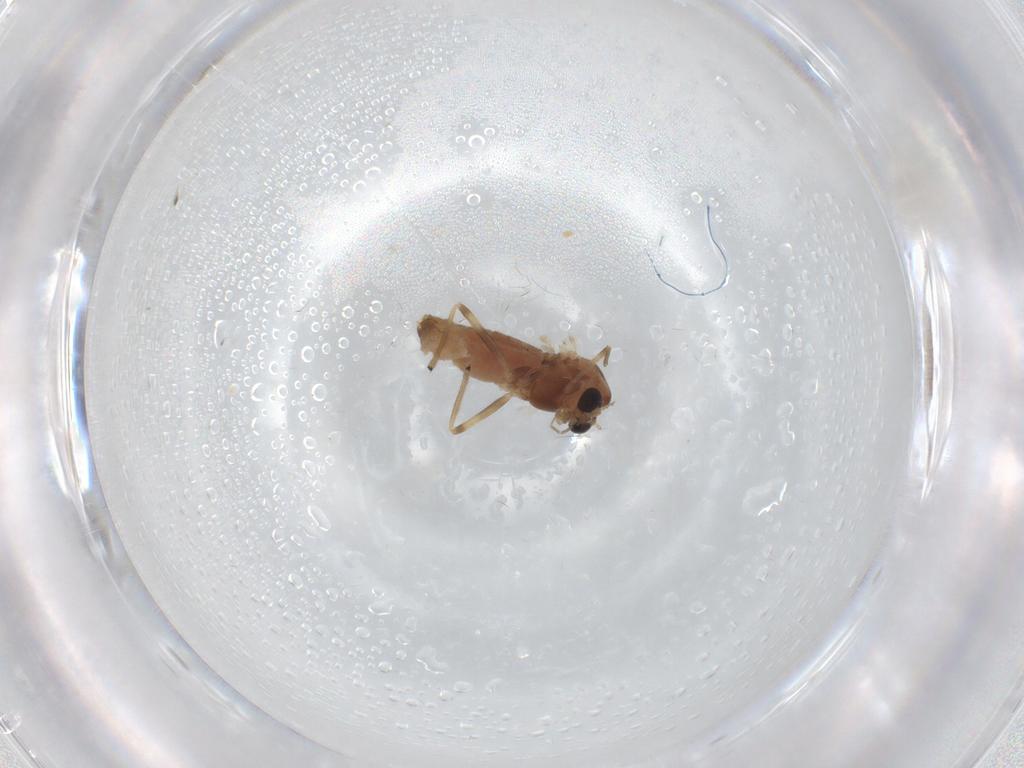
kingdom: Animalia
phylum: Arthropoda
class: Insecta
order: Diptera
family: Chironomidae
